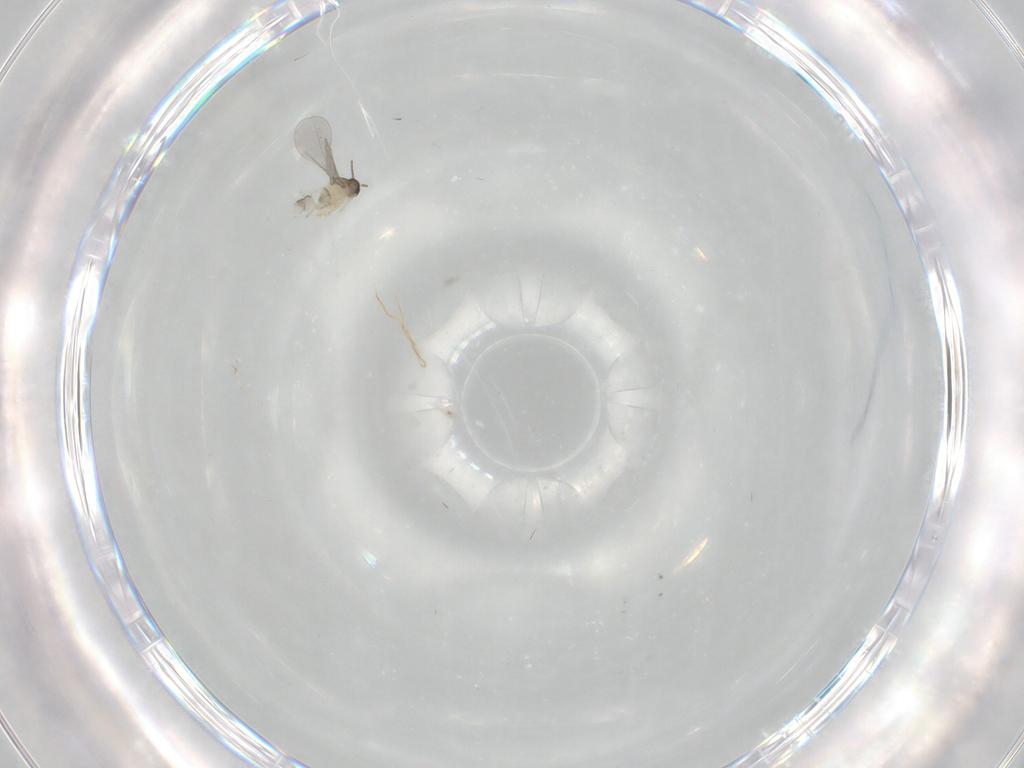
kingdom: Animalia
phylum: Arthropoda
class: Insecta
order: Diptera
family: Cecidomyiidae
